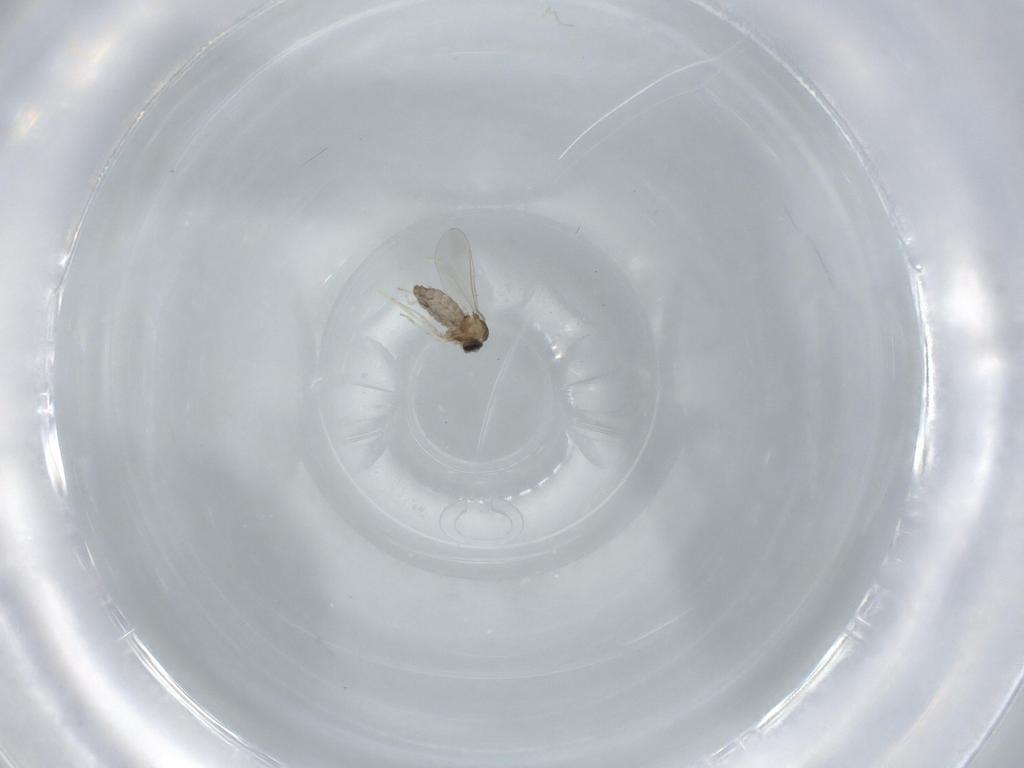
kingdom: Animalia
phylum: Arthropoda
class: Insecta
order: Diptera
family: Cecidomyiidae
